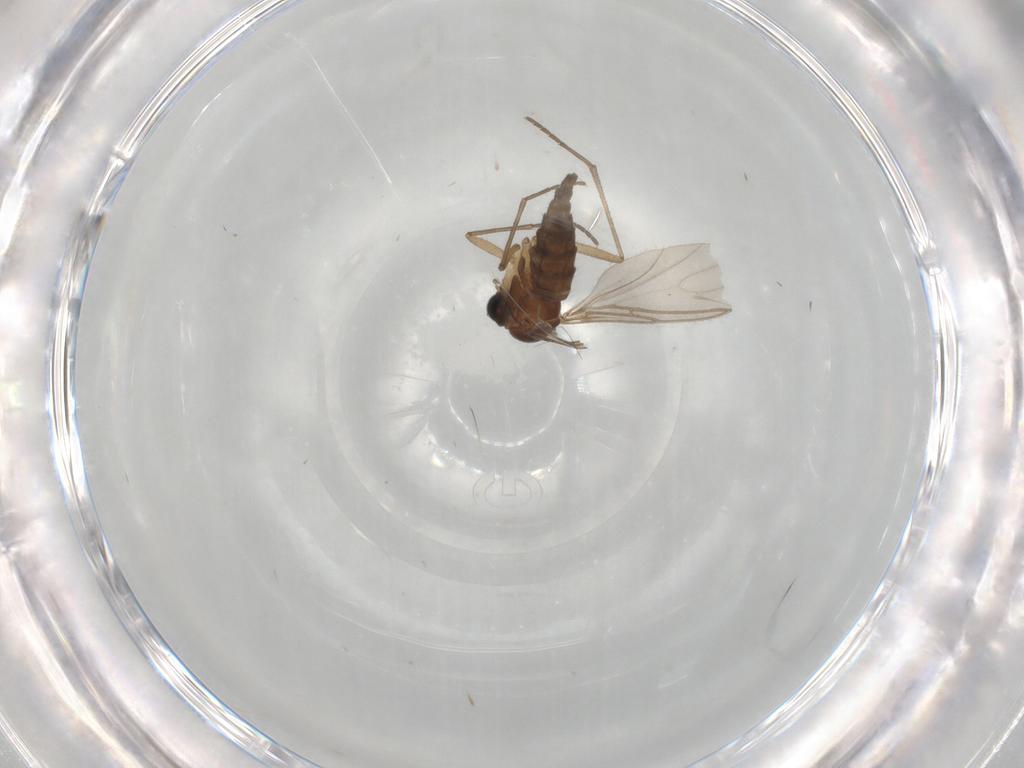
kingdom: Animalia
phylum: Arthropoda
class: Insecta
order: Diptera
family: Sciaridae
